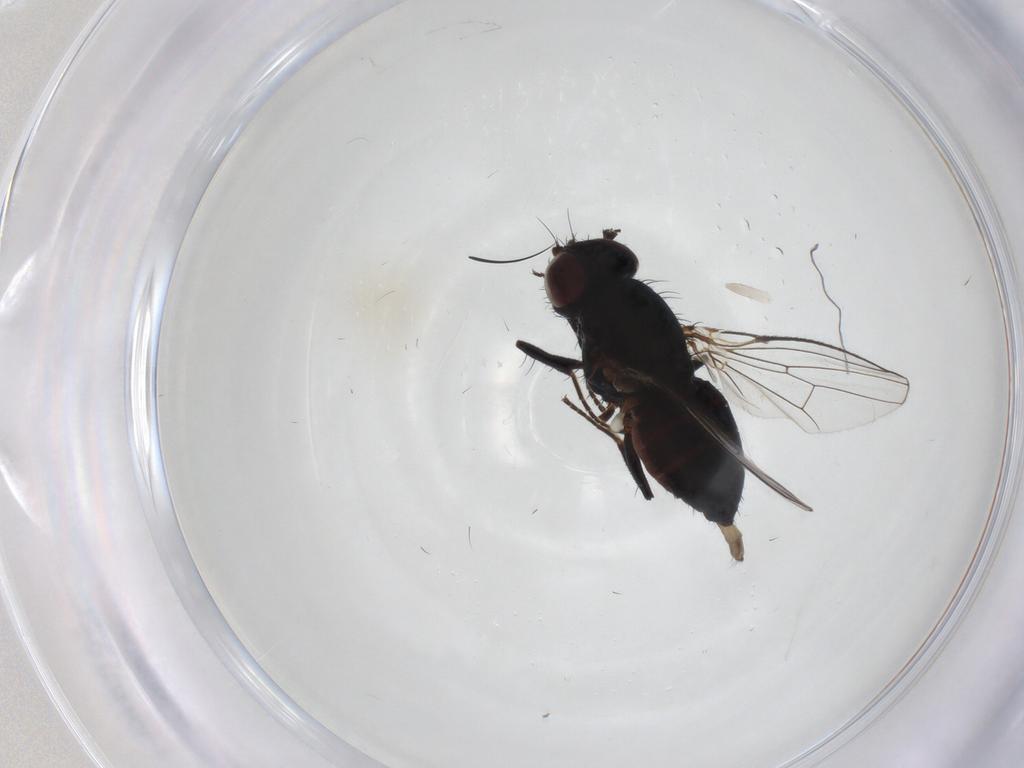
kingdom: Animalia
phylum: Arthropoda
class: Insecta
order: Diptera
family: Carnidae
